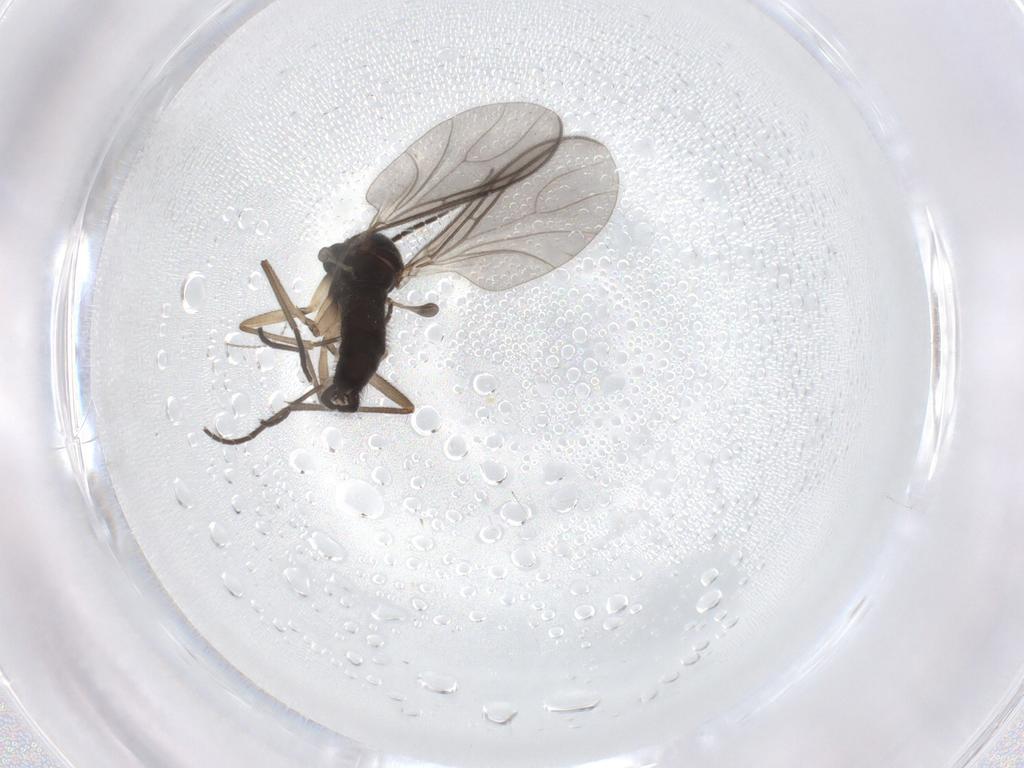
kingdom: Animalia
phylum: Arthropoda
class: Insecta
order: Diptera
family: Sciaridae
